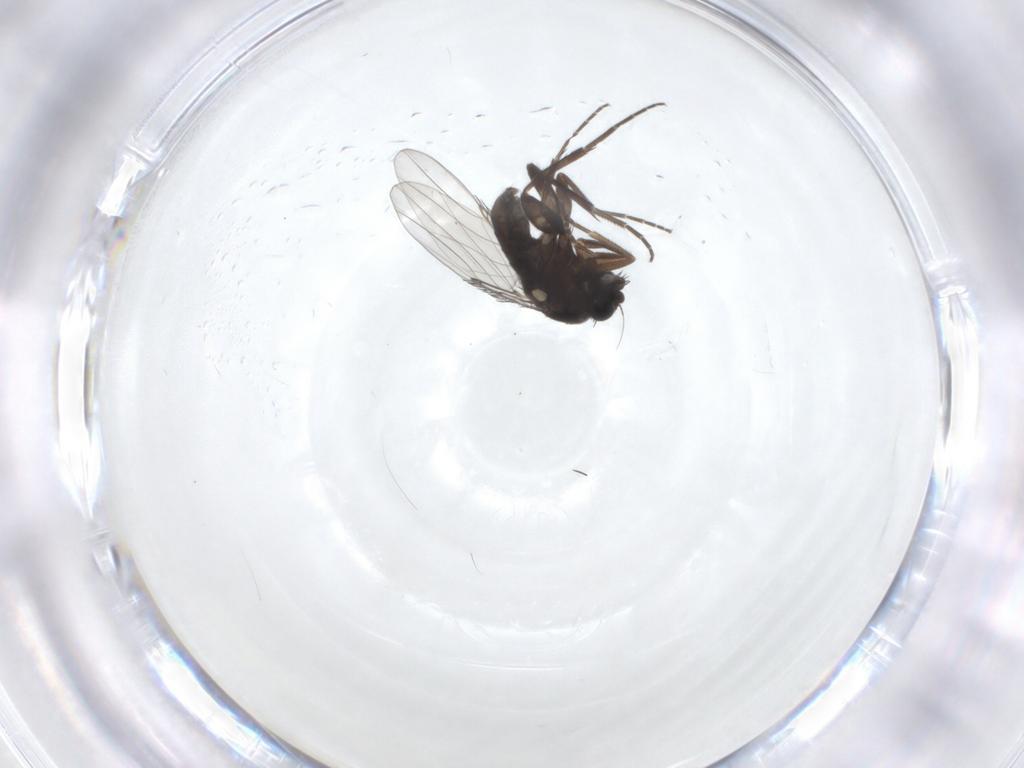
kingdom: Animalia
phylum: Arthropoda
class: Insecta
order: Diptera
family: Phoridae
